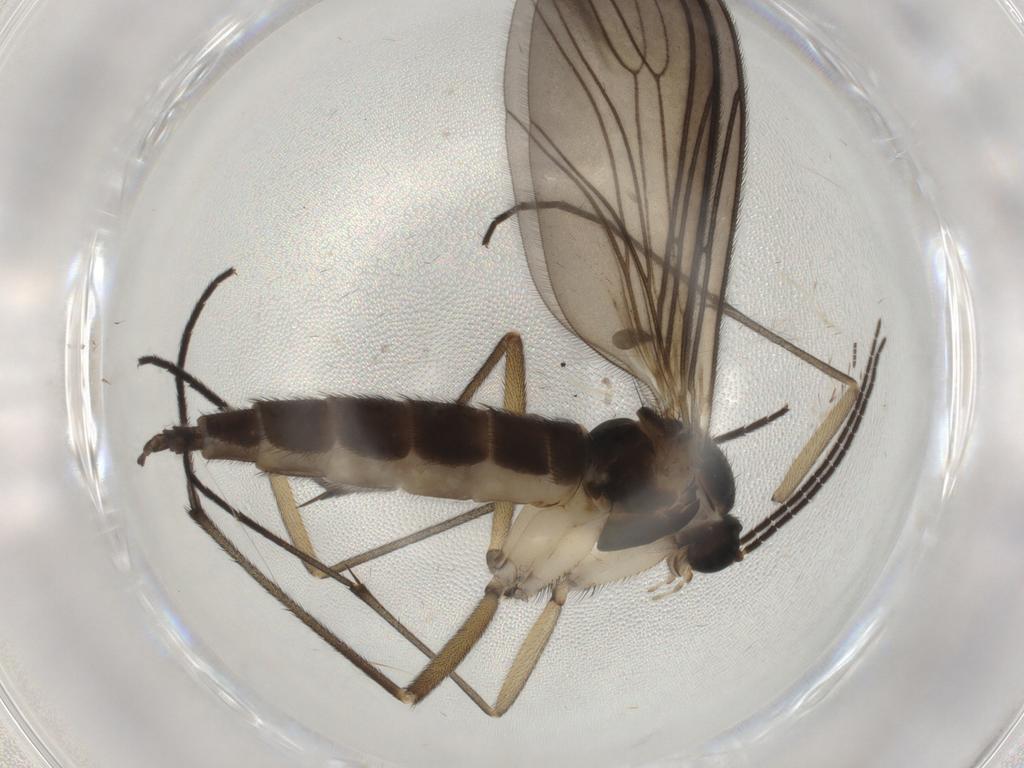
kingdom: Animalia
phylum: Arthropoda
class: Insecta
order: Diptera
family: Sciaridae
